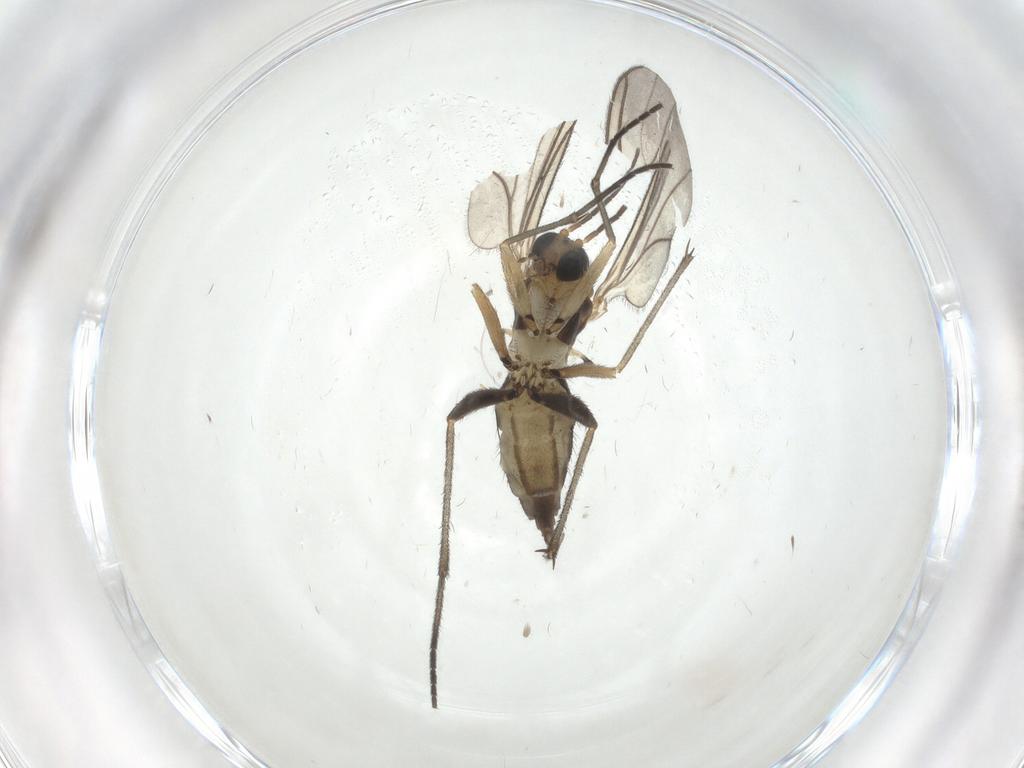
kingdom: Animalia
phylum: Arthropoda
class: Insecta
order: Diptera
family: Sciaridae
